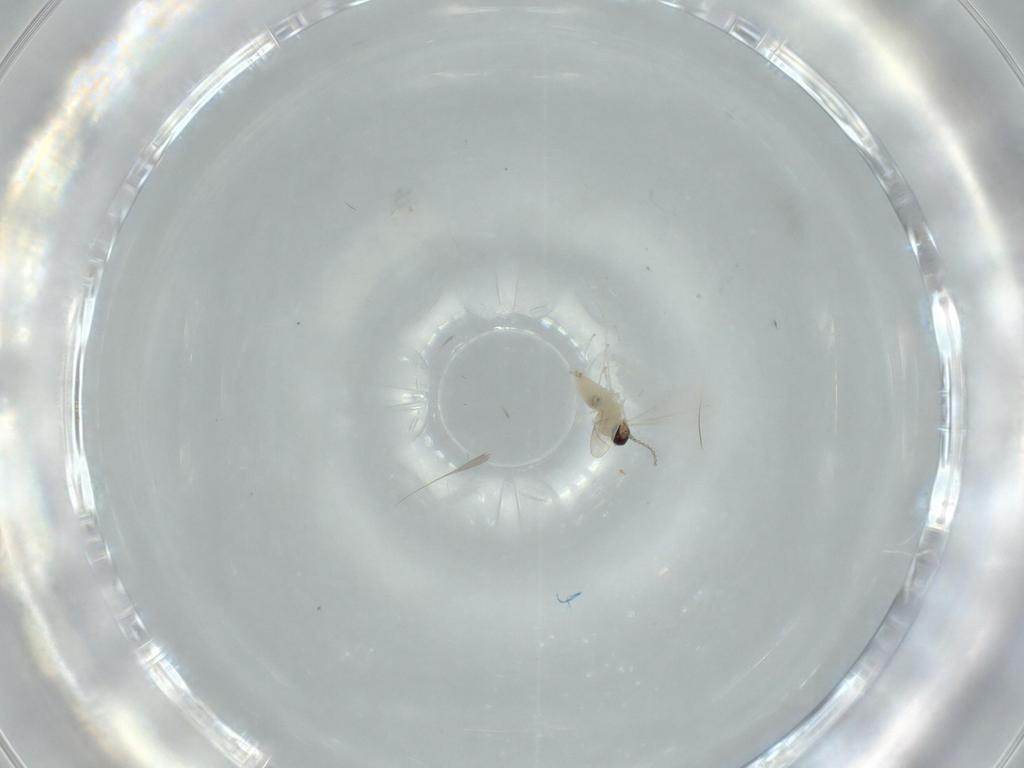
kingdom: Animalia
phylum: Arthropoda
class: Insecta
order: Diptera
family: Cecidomyiidae
